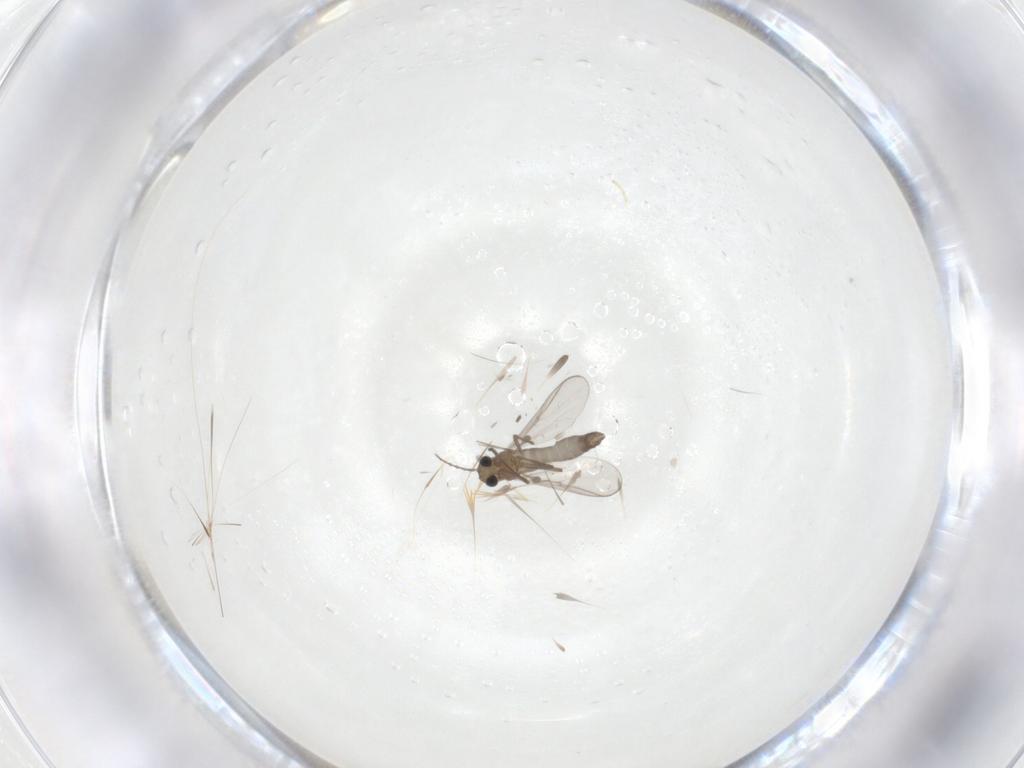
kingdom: Animalia
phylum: Arthropoda
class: Insecta
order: Diptera
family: Chironomidae
